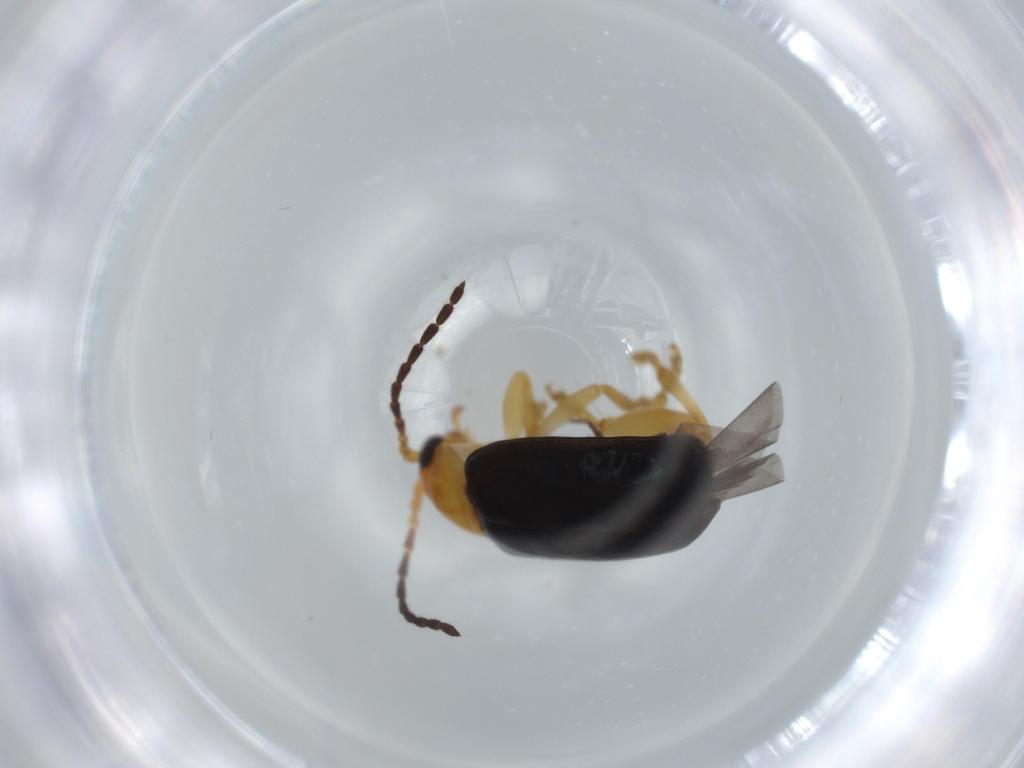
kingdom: Animalia
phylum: Arthropoda
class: Insecta
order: Coleoptera
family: Chrysomelidae
